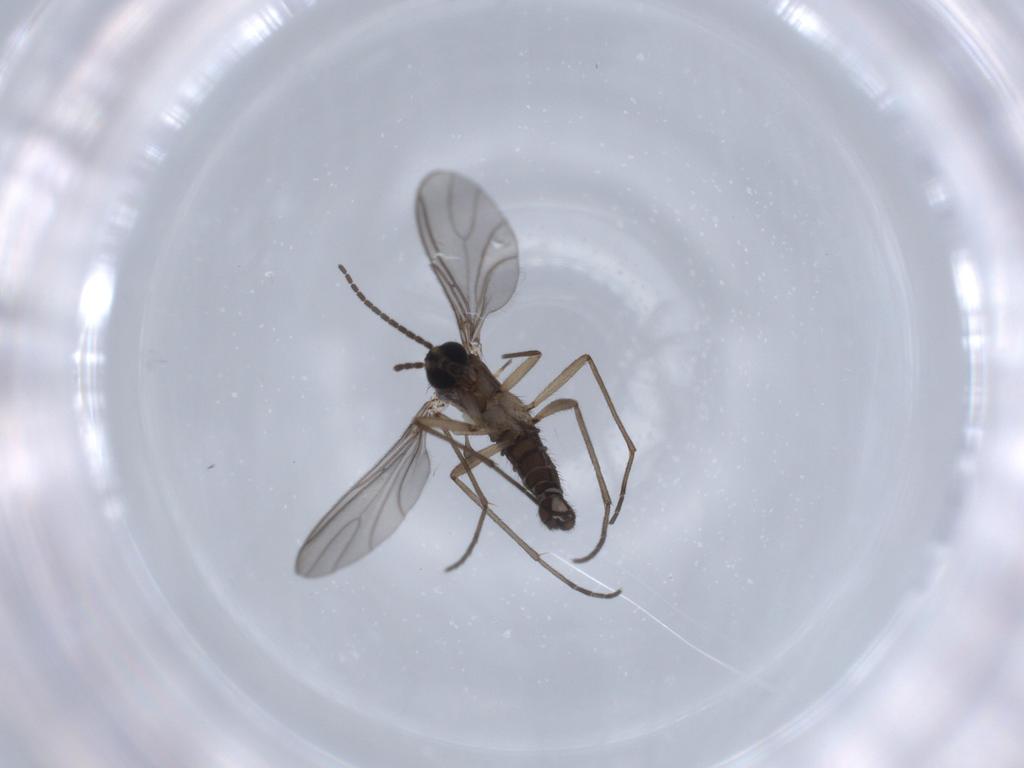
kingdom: Animalia
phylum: Arthropoda
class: Insecta
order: Diptera
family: Sciaridae
